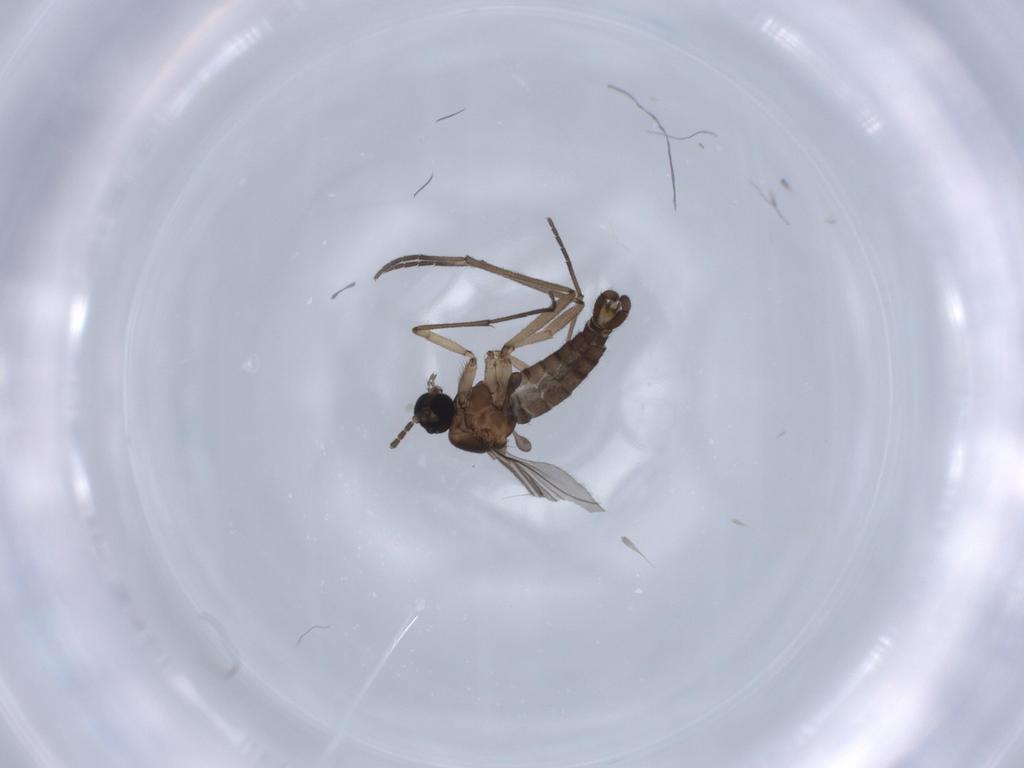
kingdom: Animalia
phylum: Arthropoda
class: Insecta
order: Diptera
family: Sciaridae
